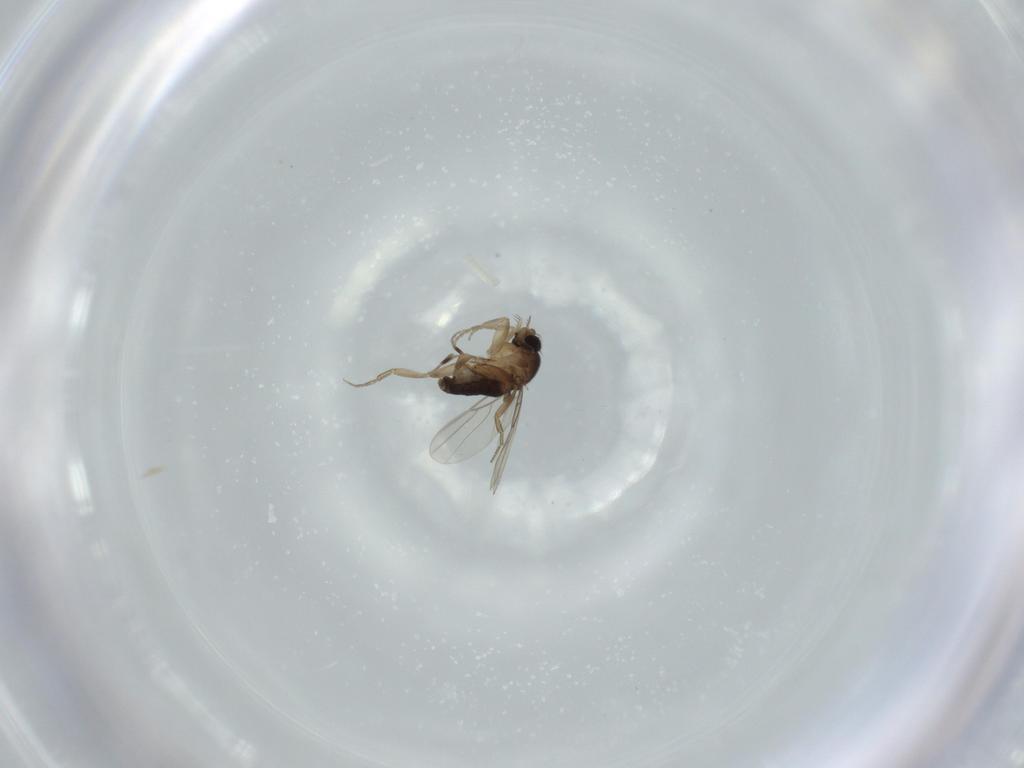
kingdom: Animalia
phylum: Arthropoda
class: Insecta
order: Diptera
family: Phoridae
